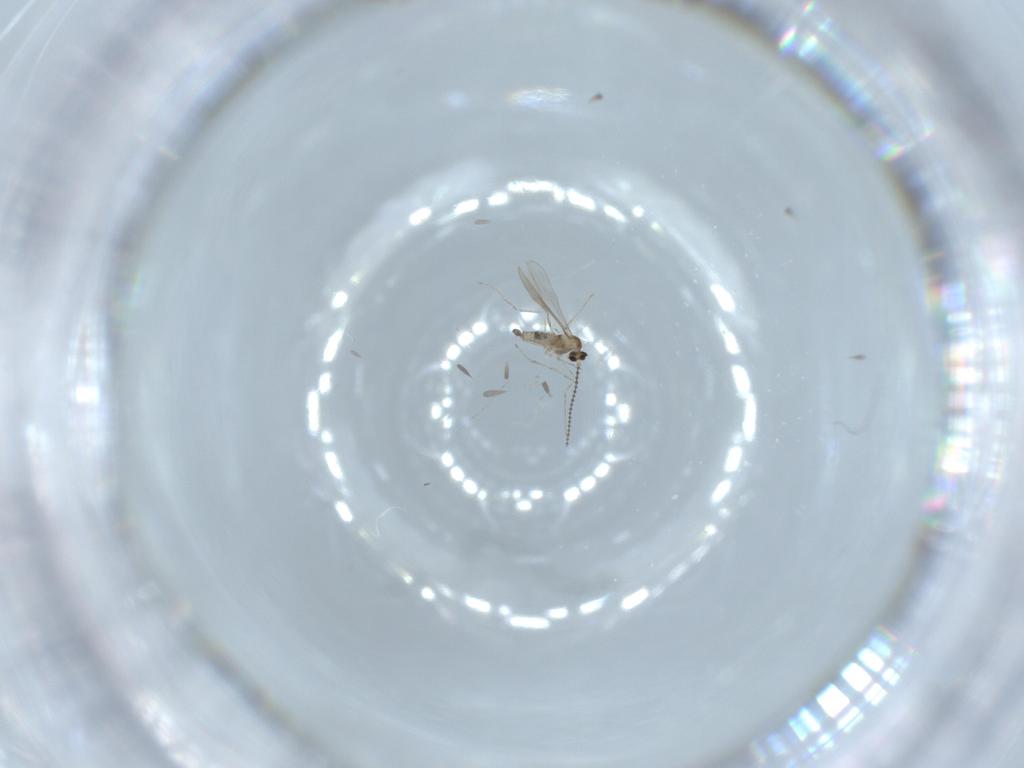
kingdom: Animalia
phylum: Arthropoda
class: Insecta
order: Diptera
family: Cecidomyiidae
